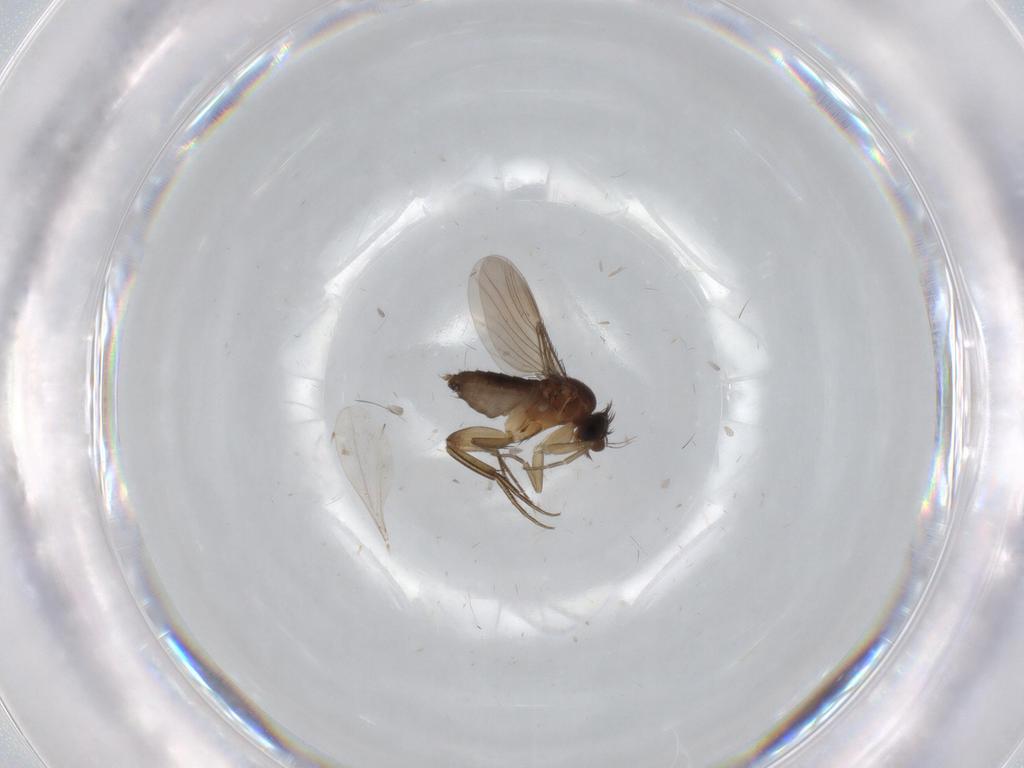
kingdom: Animalia
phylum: Arthropoda
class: Insecta
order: Diptera
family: Phoridae
